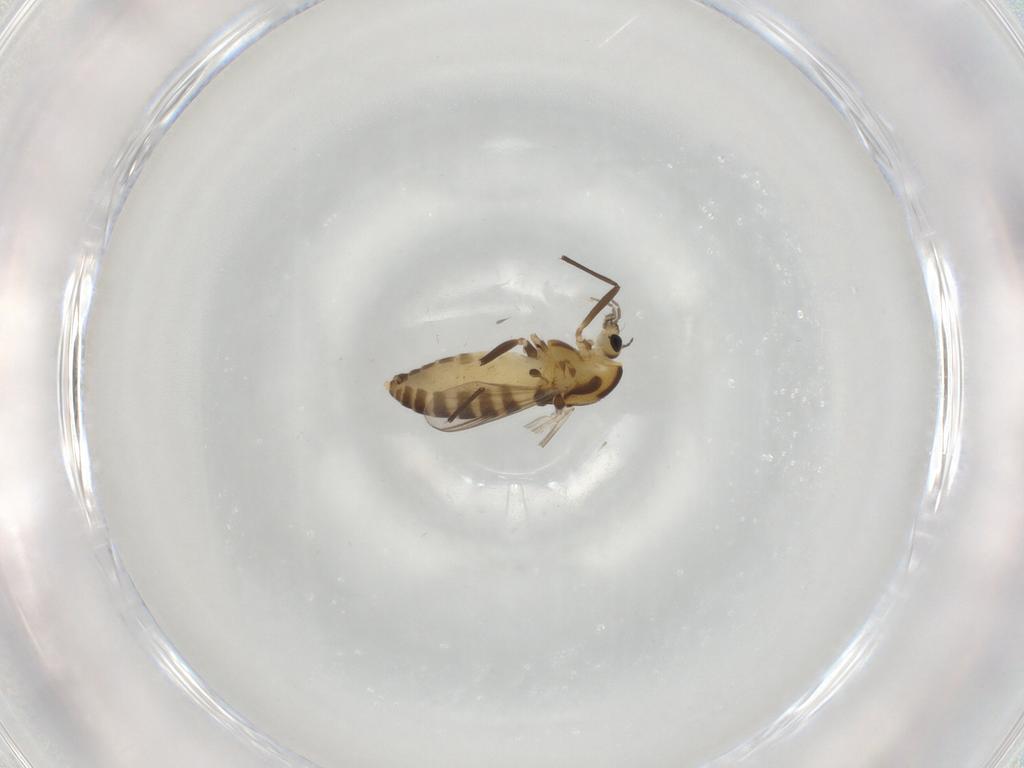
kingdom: Animalia
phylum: Arthropoda
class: Insecta
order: Diptera
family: Chironomidae
